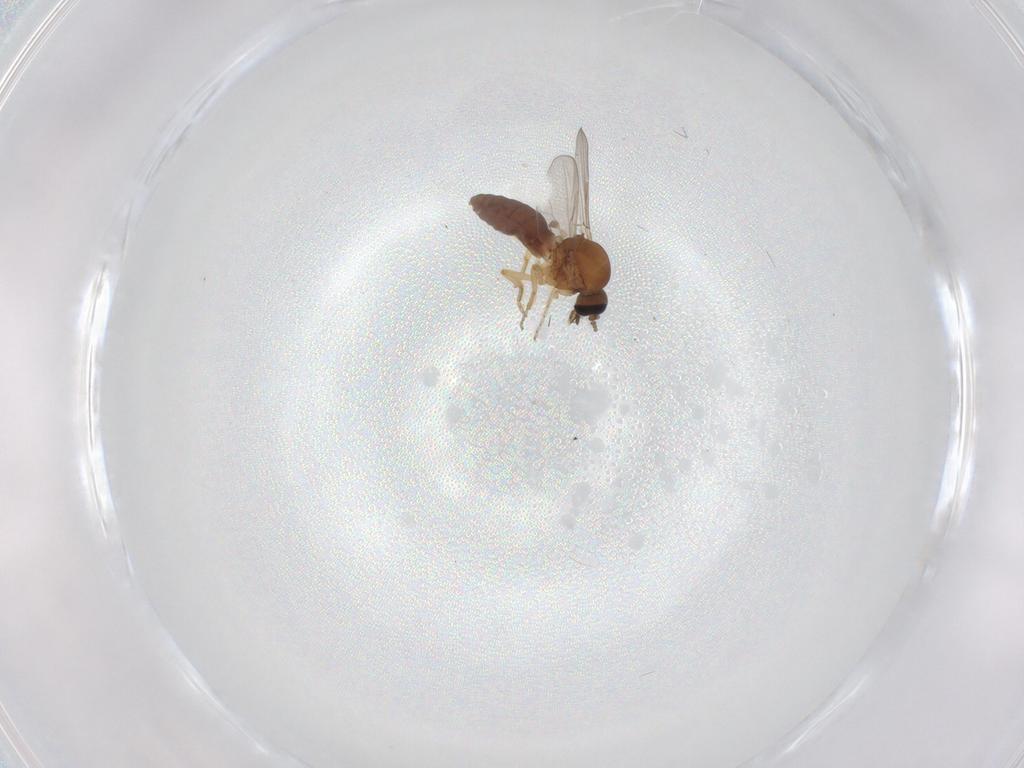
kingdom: Animalia
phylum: Arthropoda
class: Insecta
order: Diptera
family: Ceratopogonidae
